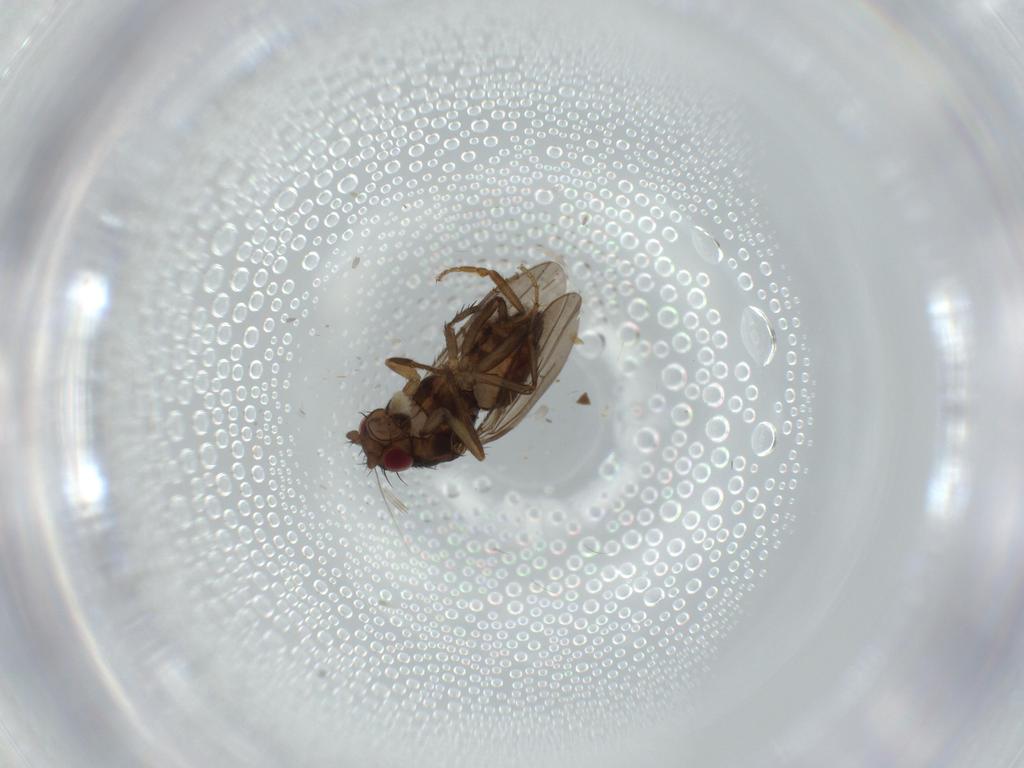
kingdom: Animalia
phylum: Arthropoda
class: Insecta
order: Diptera
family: Chironomidae
